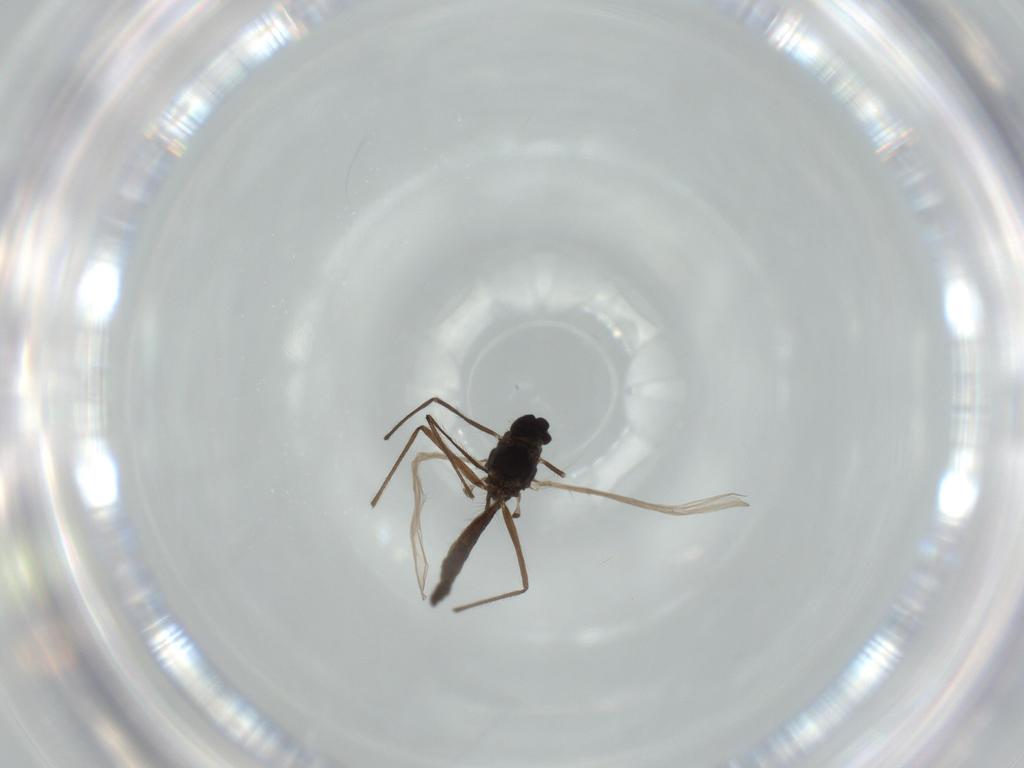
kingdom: Animalia
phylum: Arthropoda
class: Insecta
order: Diptera
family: Chironomidae
